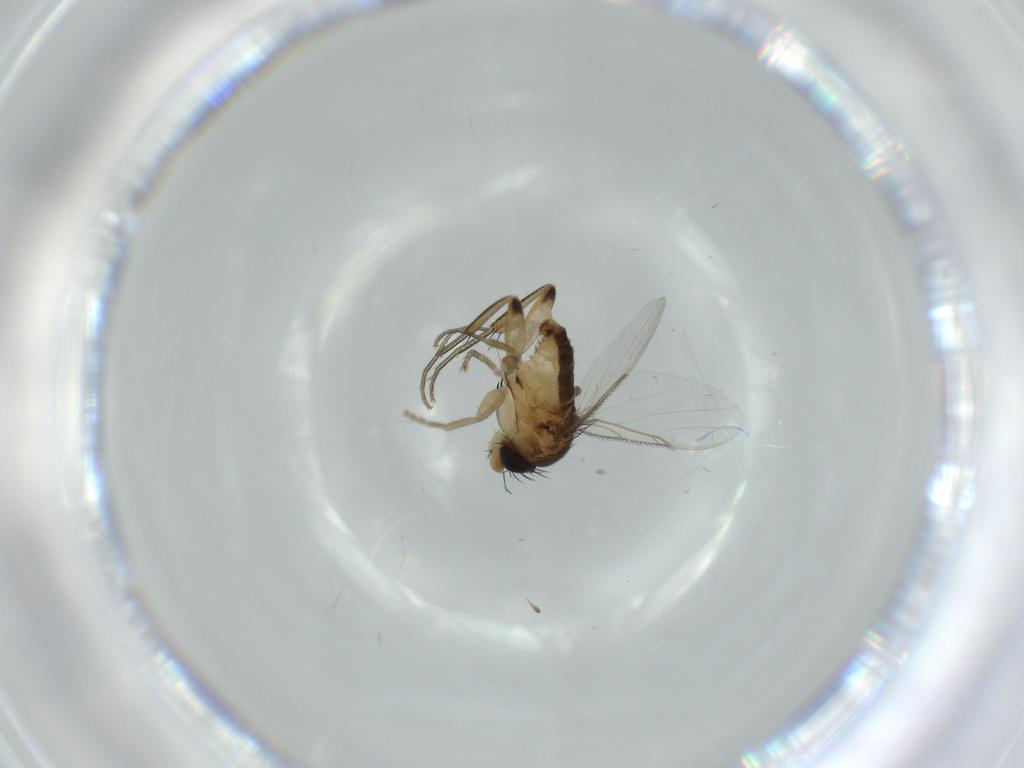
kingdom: Animalia
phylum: Arthropoda
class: Insecta
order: Diptera
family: Phoridae
